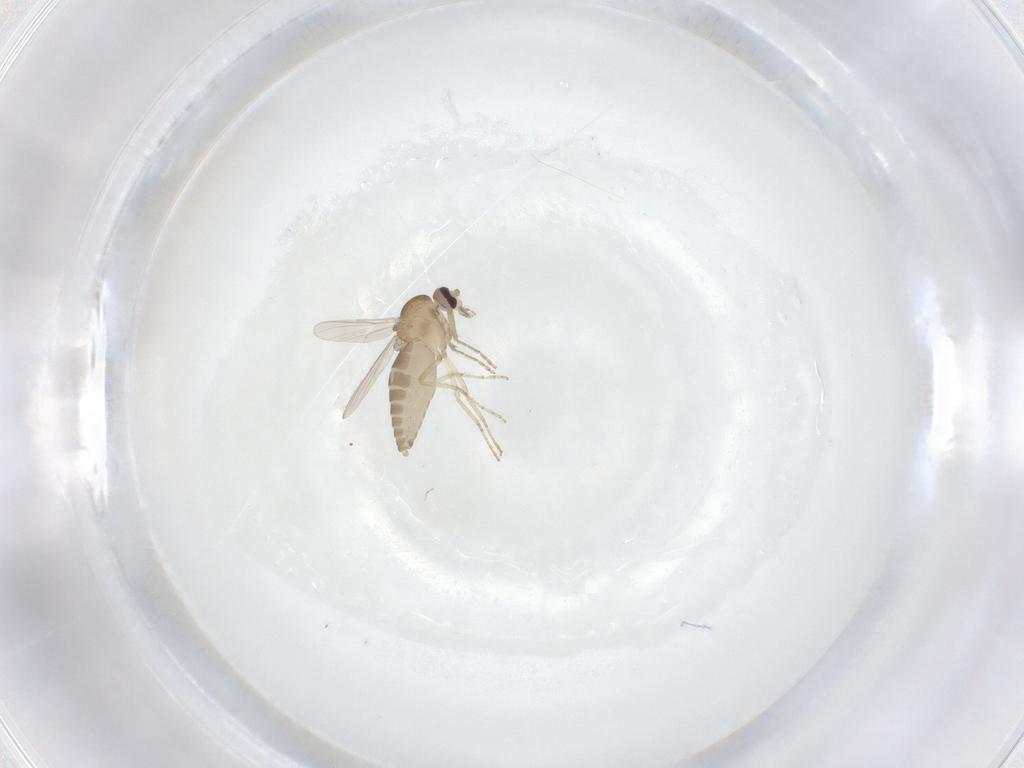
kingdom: Animalia
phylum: Arthropoda
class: Insecta
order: Diptera
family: Ceratopogonidae
